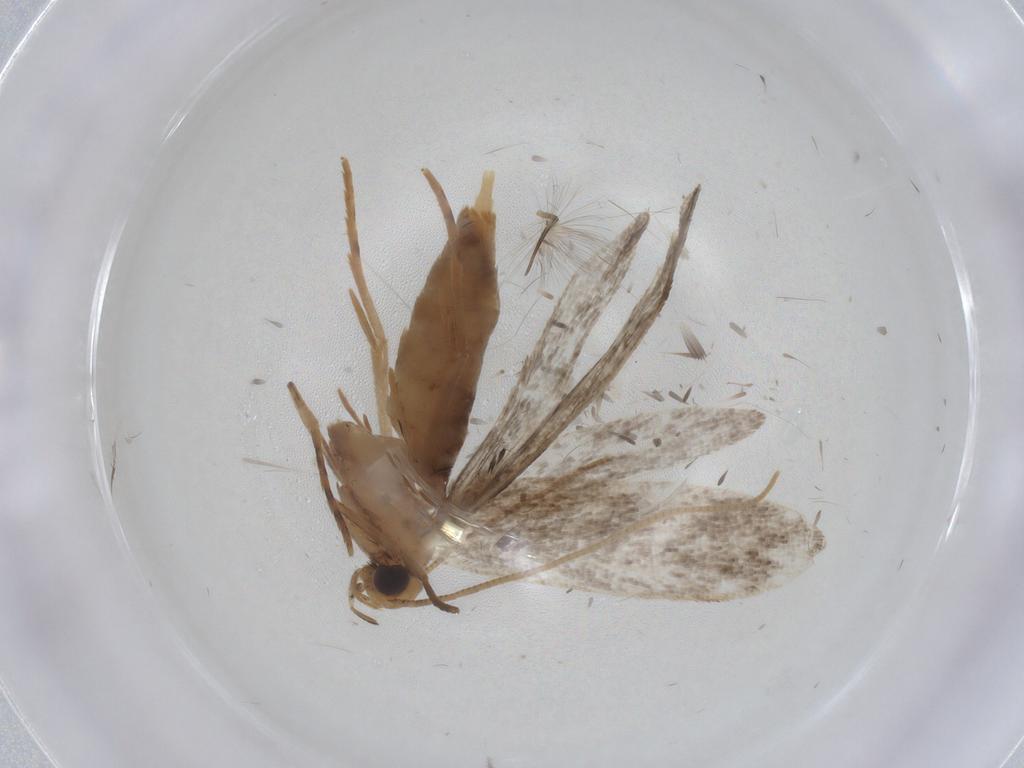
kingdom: Animalia
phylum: Arthropoda
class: Insecta
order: Lepidoptera
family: Tineidae
